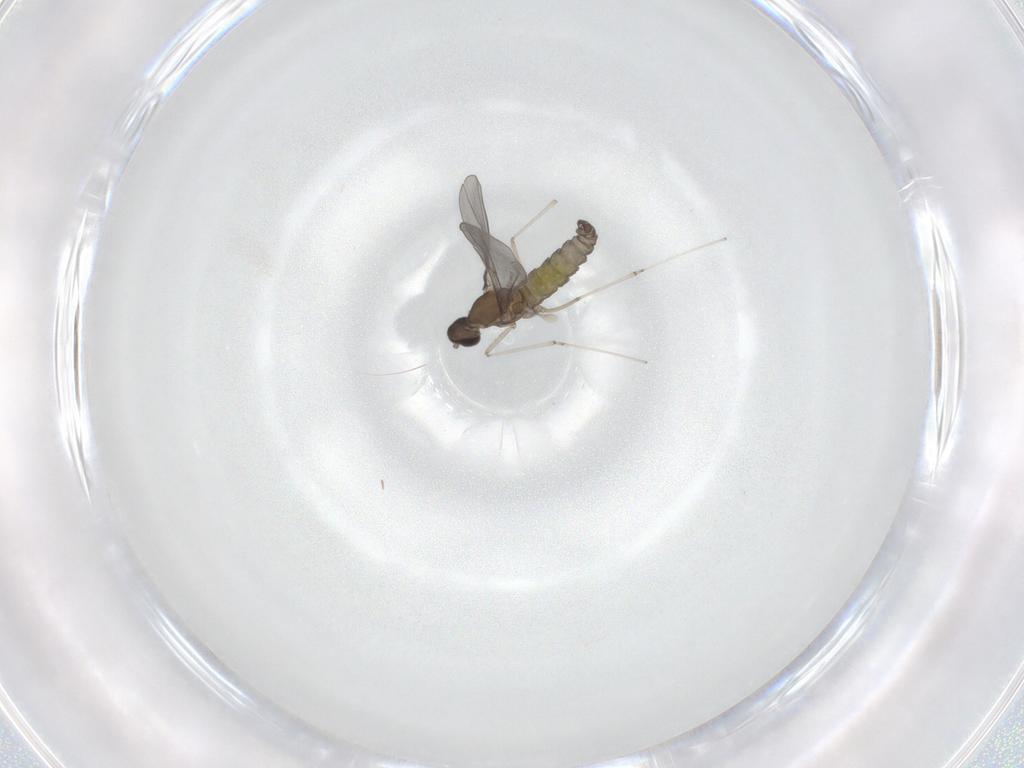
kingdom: Animalia
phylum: Arthropoda
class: Insecta
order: Diptera
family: Cecidomyiidae
